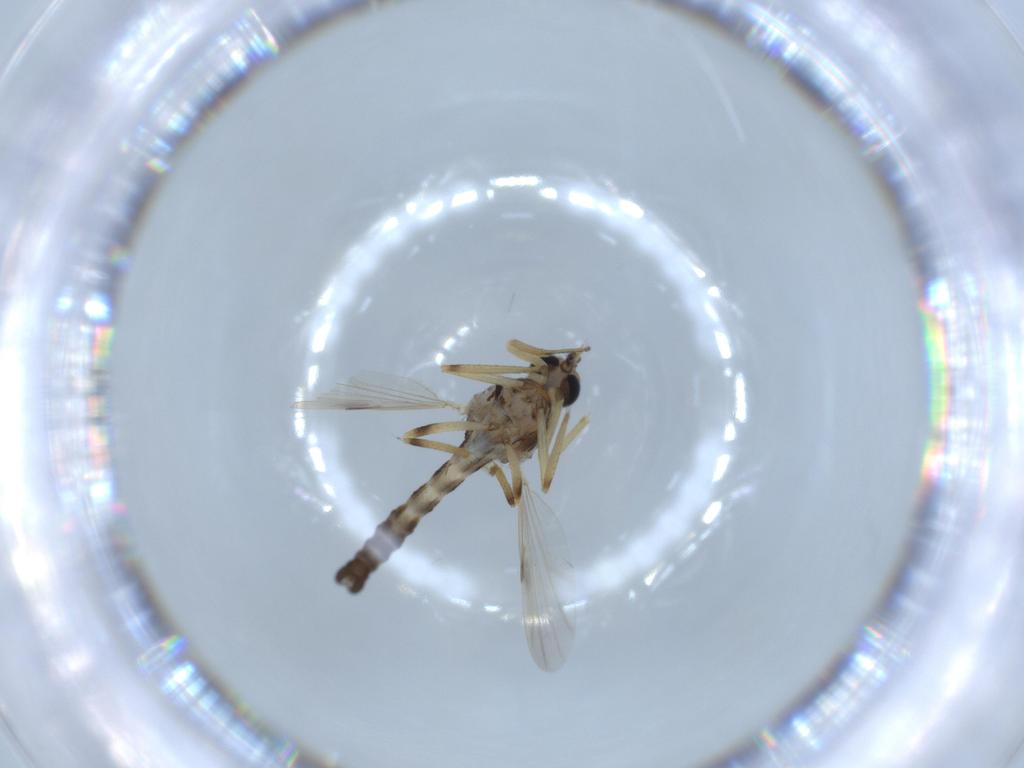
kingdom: Animalia
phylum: Arthropoda
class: Insecta
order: Diptera
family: Ceratopogonidae
